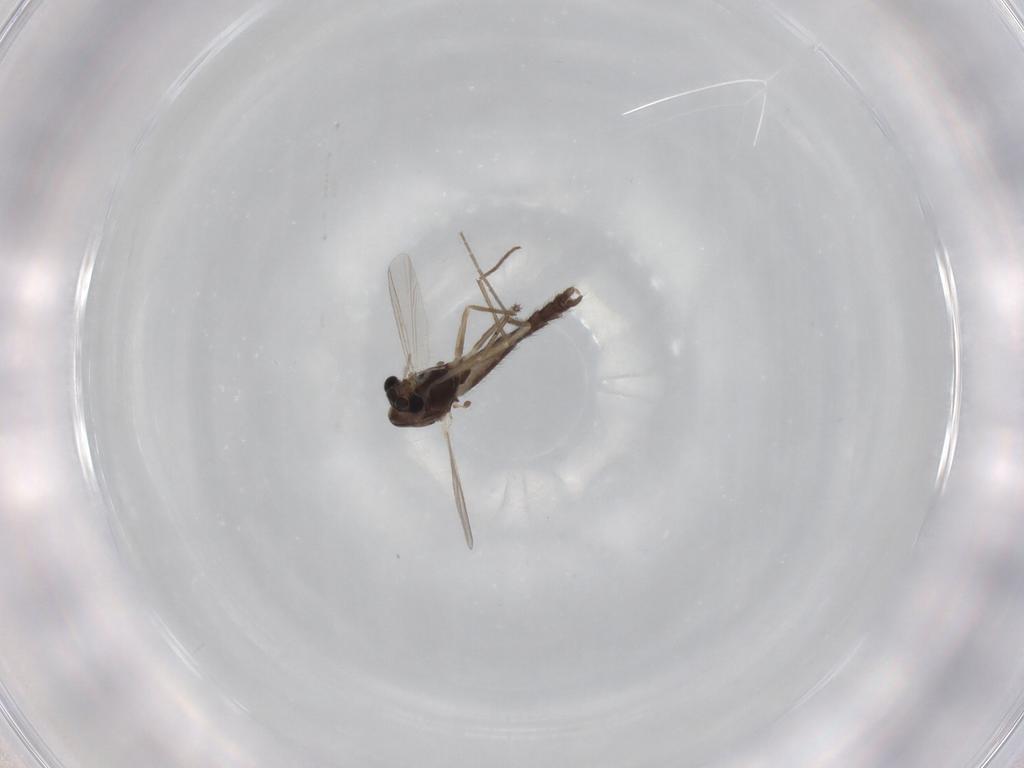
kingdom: Animalia
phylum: Arthropoda
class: Insecta
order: Diptera
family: Chironomidae
